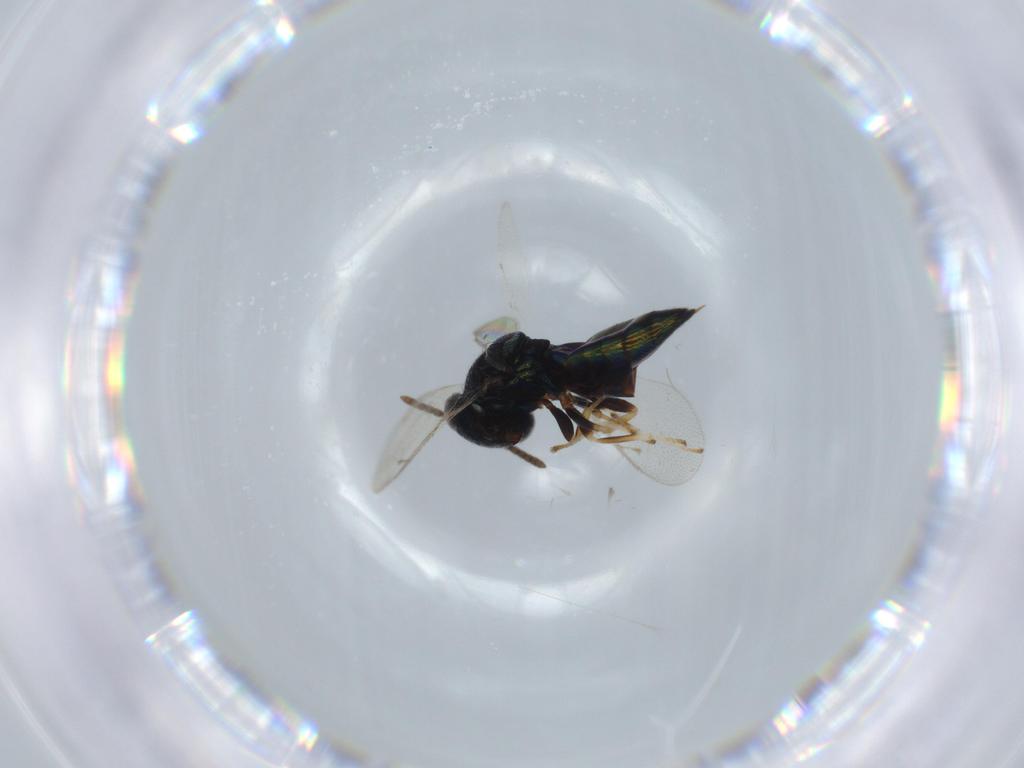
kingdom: Animalia
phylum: Arthropoda
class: Insecta
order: Hymenoptera
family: Pteromalidae
